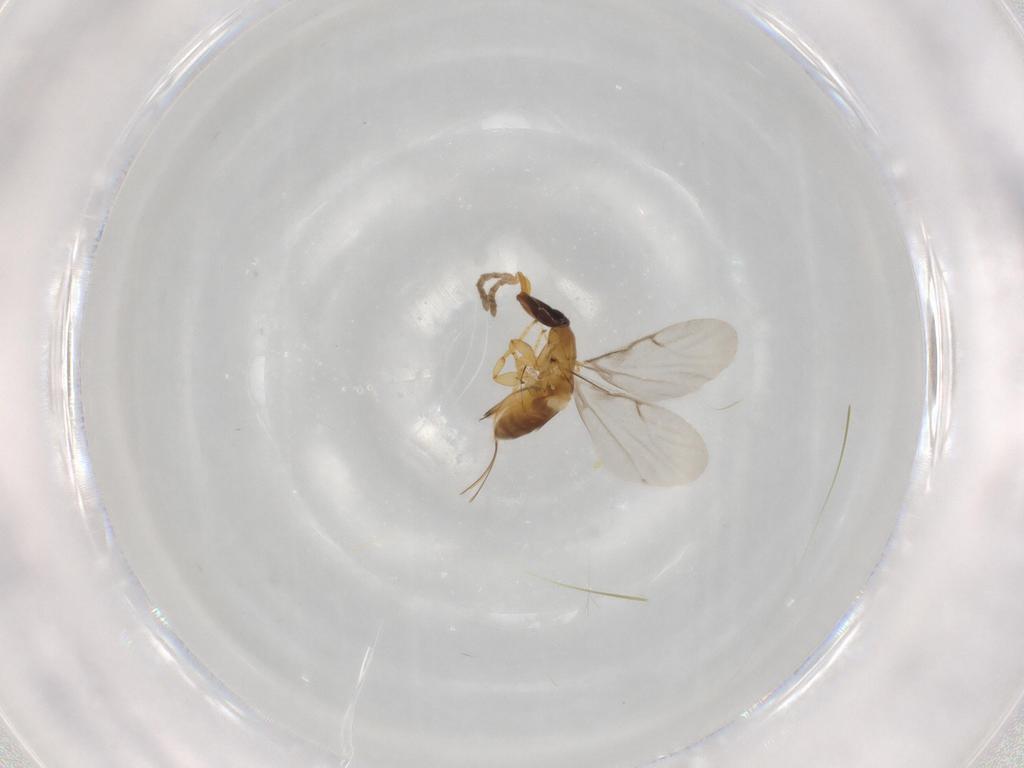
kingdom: Animalia
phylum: Arthropoda
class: Insecta
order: Hymenoptera
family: Agaonidae
